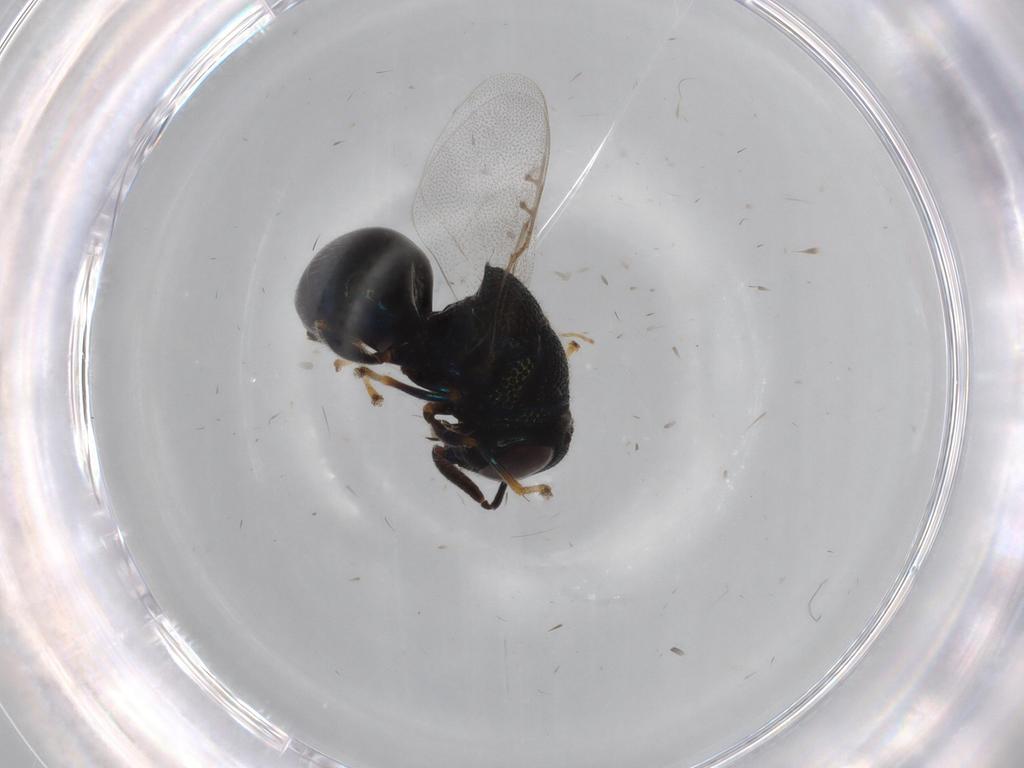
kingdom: Animalia
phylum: Arthropoda
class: Insecta
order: Hymenoptera
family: Perilampidae
